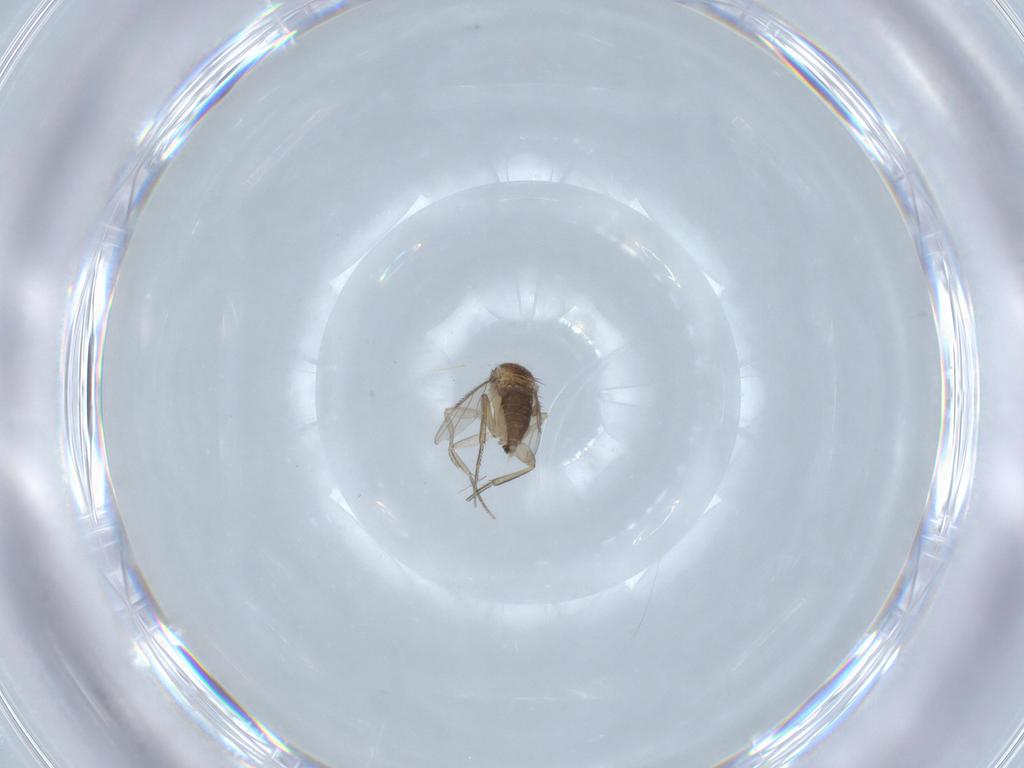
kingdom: Animalia
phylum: Arthropoda
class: Insecta
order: Diptera
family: Phoridae
